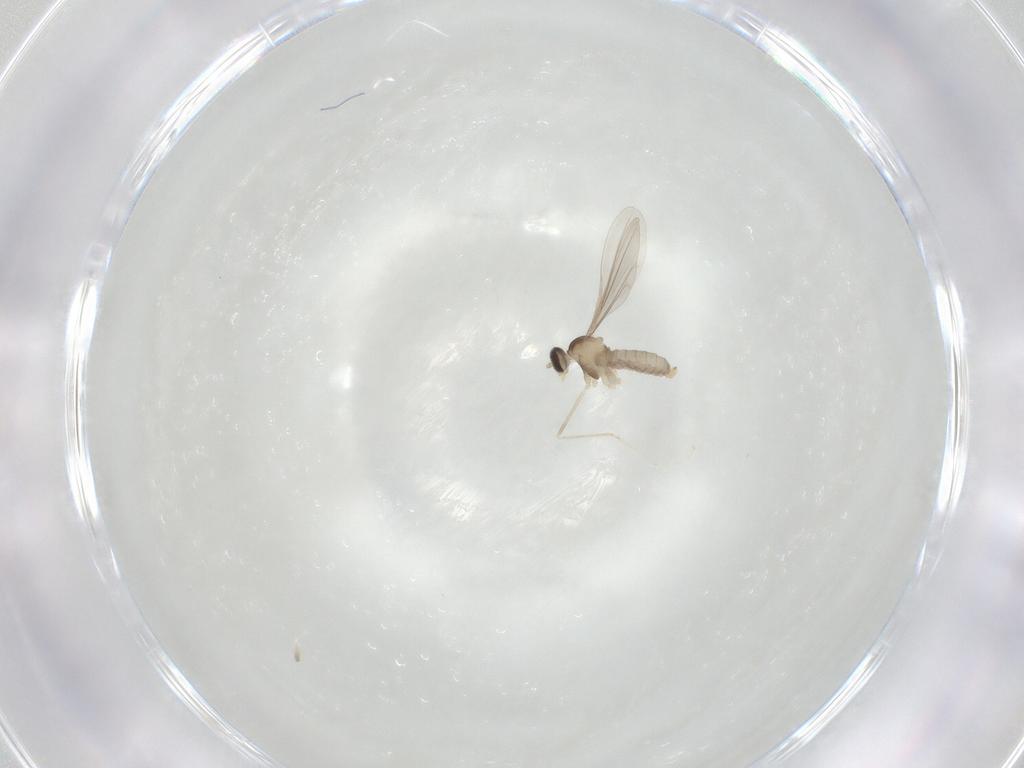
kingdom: Animalia
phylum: Arthropoda
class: Insecta
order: Diptera
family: Cecidomyiidae
